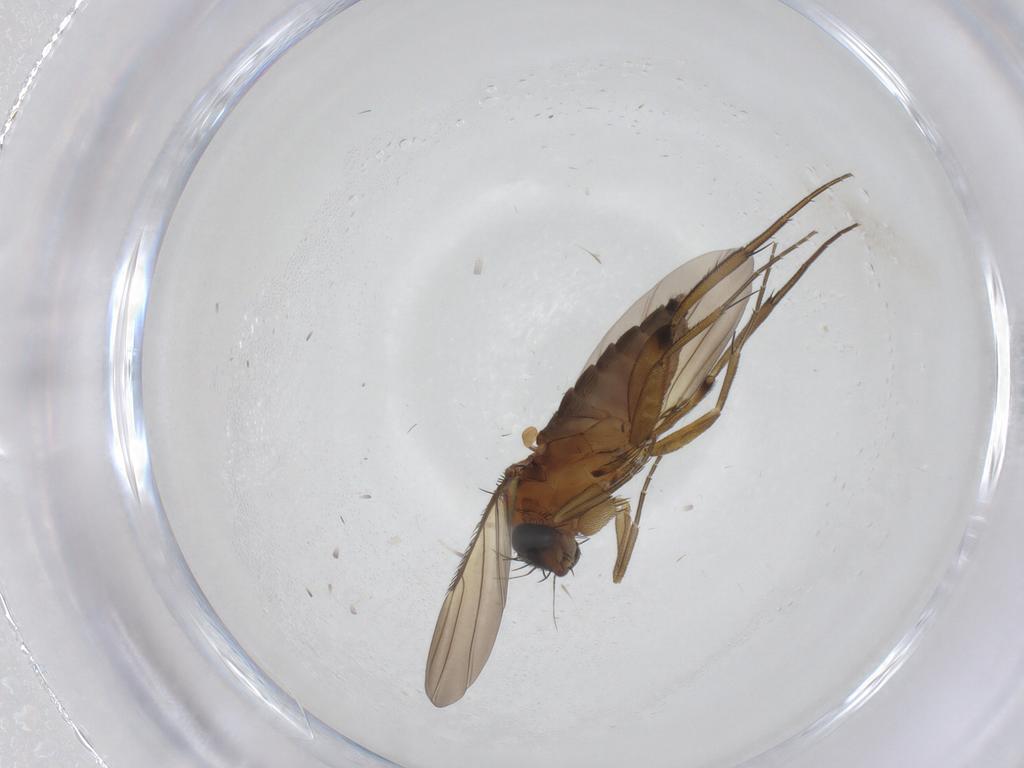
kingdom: Animalia
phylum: Arthropoda
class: Insecta
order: Diptera
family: Phoridae
